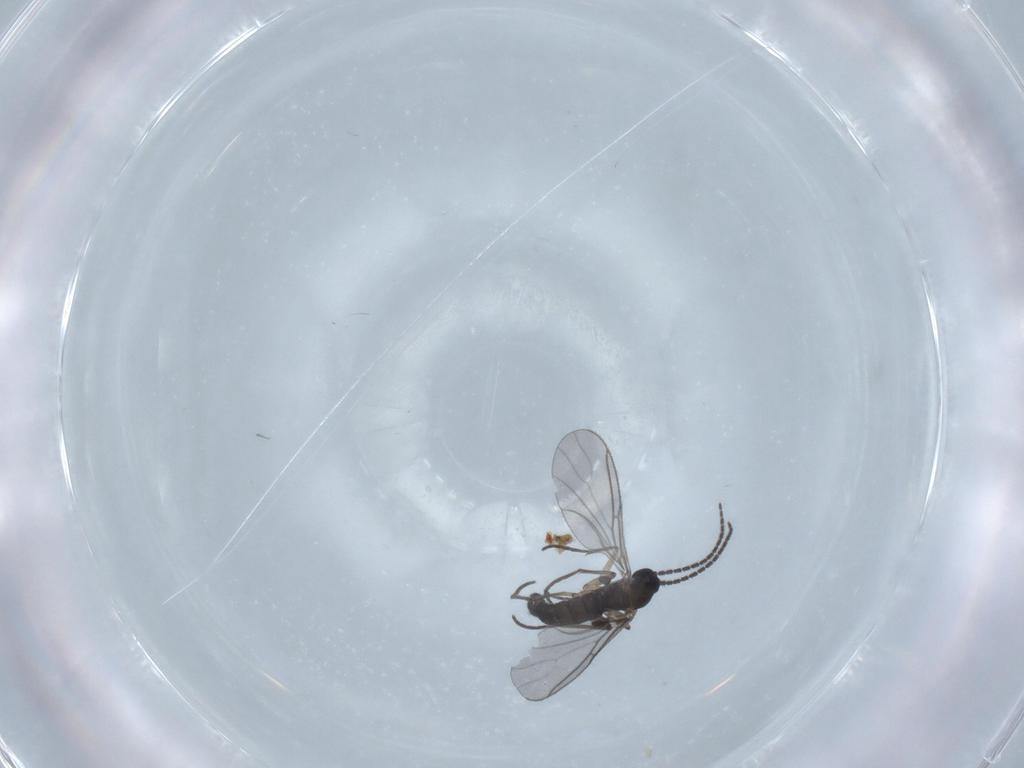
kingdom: Animalia
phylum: Arthropoda
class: Insecta
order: Diptera
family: Sciaridae
